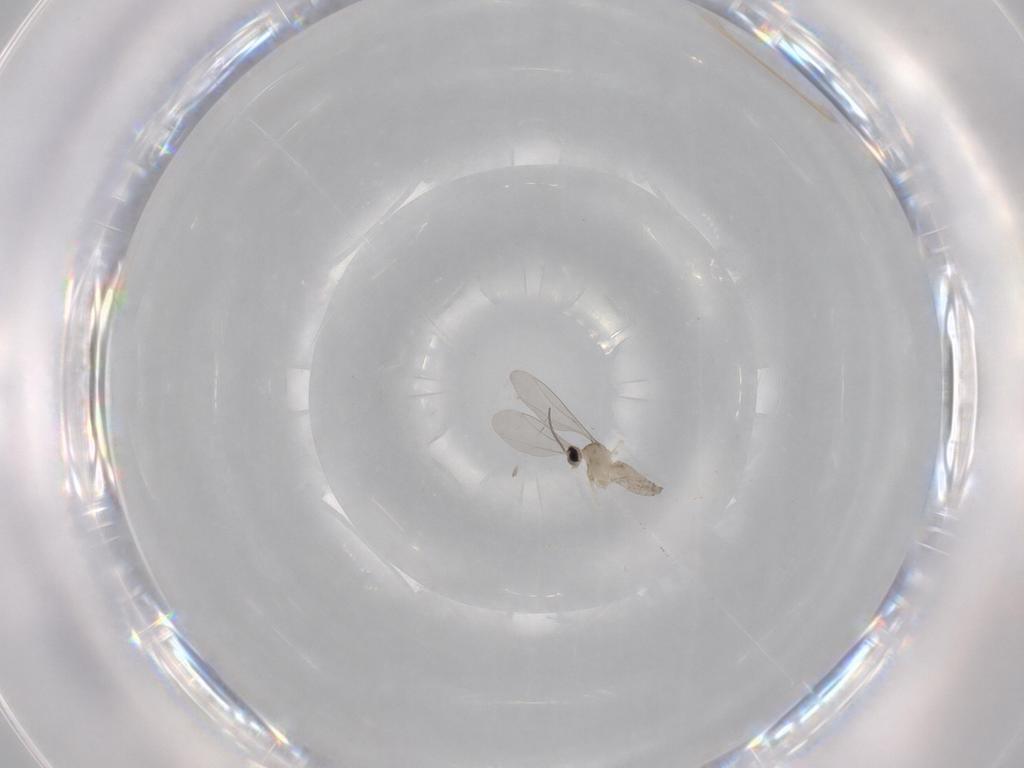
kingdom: Animalia
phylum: Arthropoda
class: Insecta
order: Diptera
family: Cecidomyiidae
